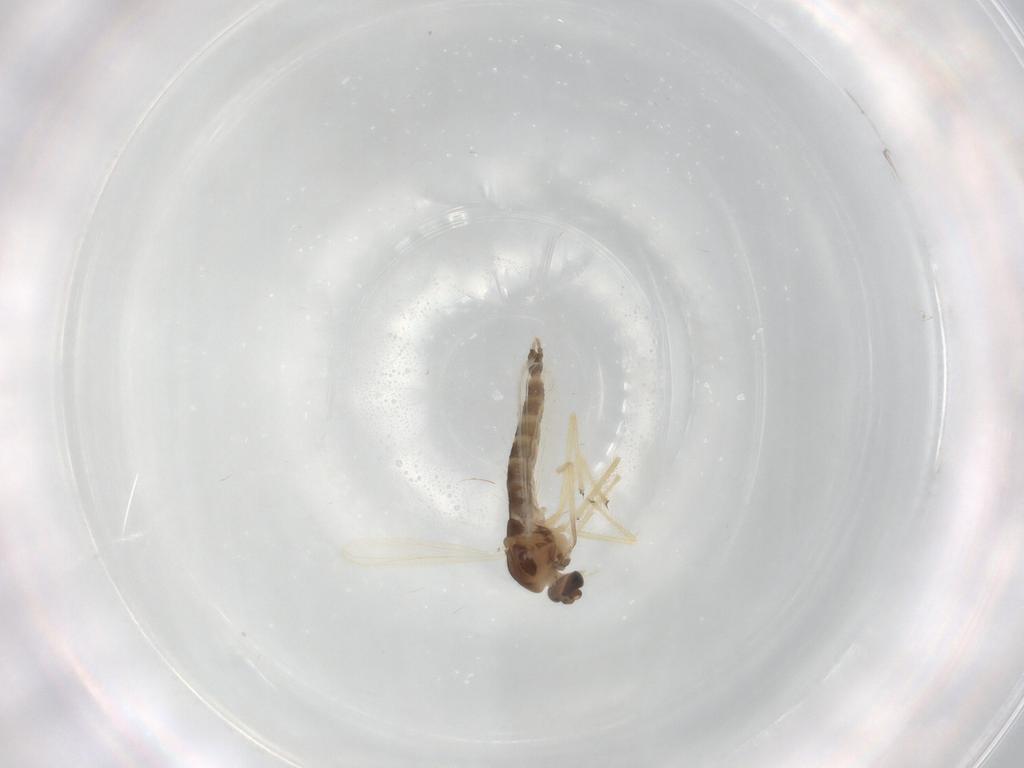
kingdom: Animalia
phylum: Arthropoda
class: Insecta
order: Diptera
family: Chironomidae
